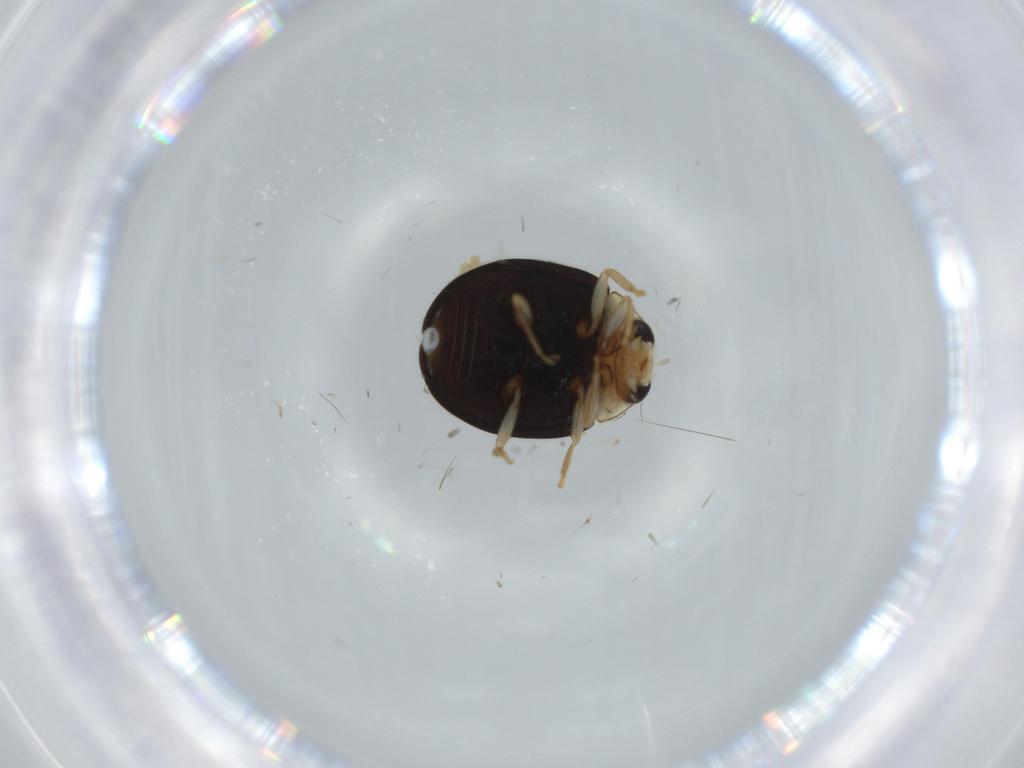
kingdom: Animalia
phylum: Arthropoda
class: Insecta
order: Coleoptera
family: Coccinellidae
